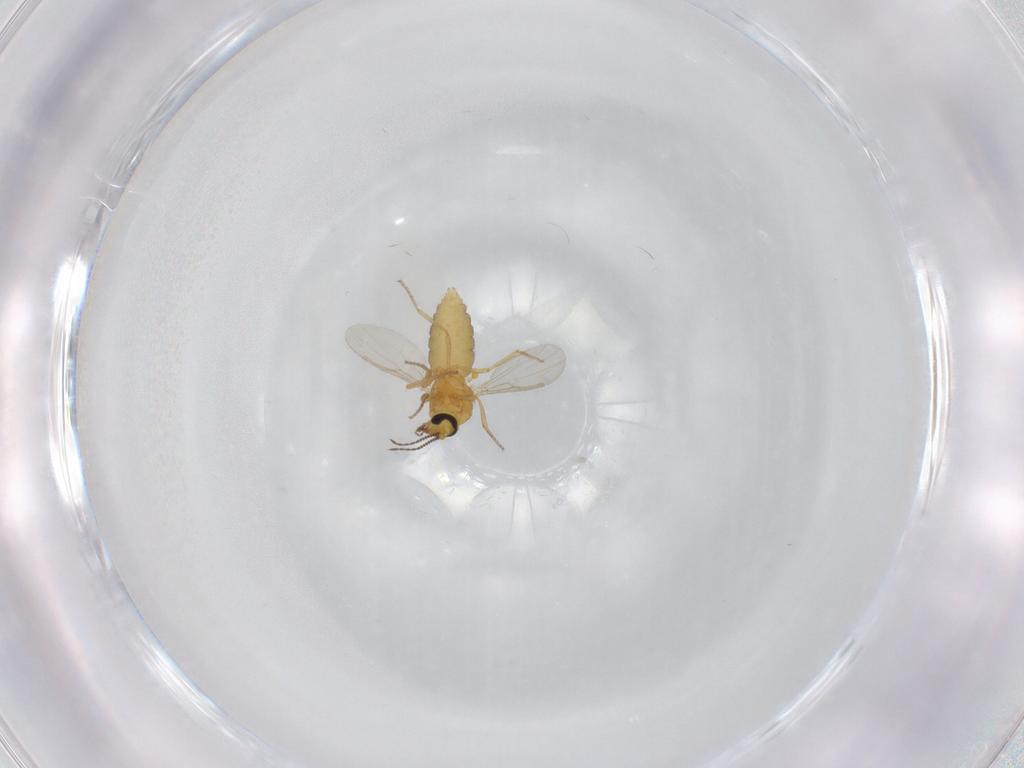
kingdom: Animalia
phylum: Arthropoda
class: Insecta
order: Diptera
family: Ceratopogonidae
